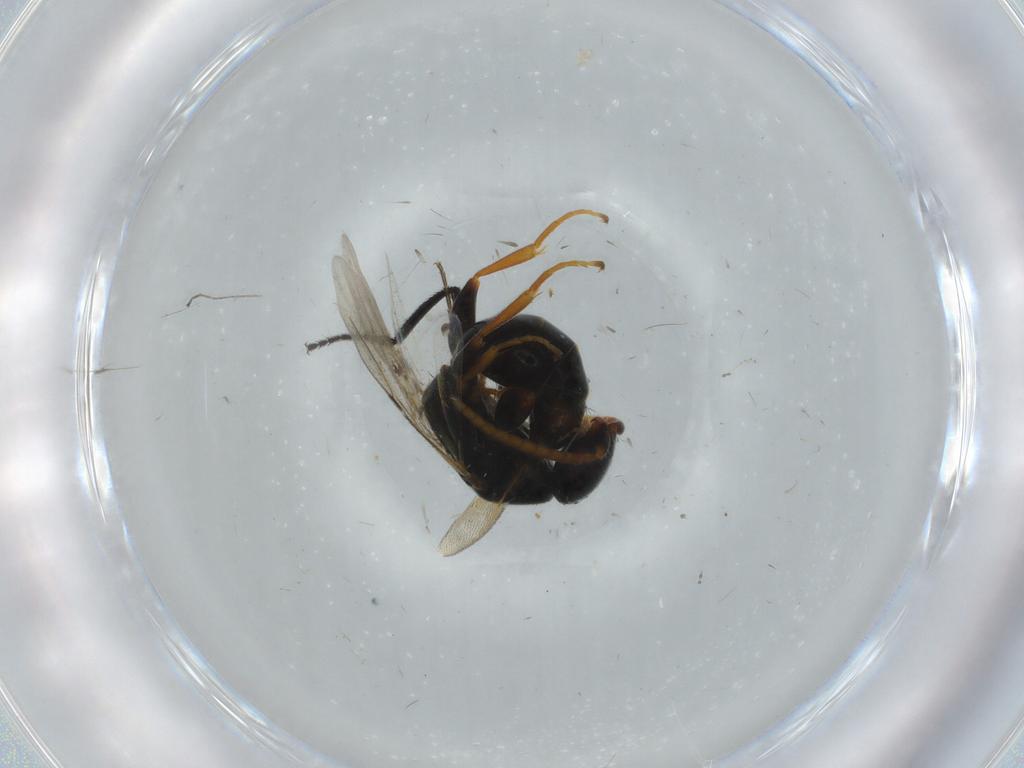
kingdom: Animalia
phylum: Arthropoda
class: Insecta
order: Hymenoptera
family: Bethylidae
